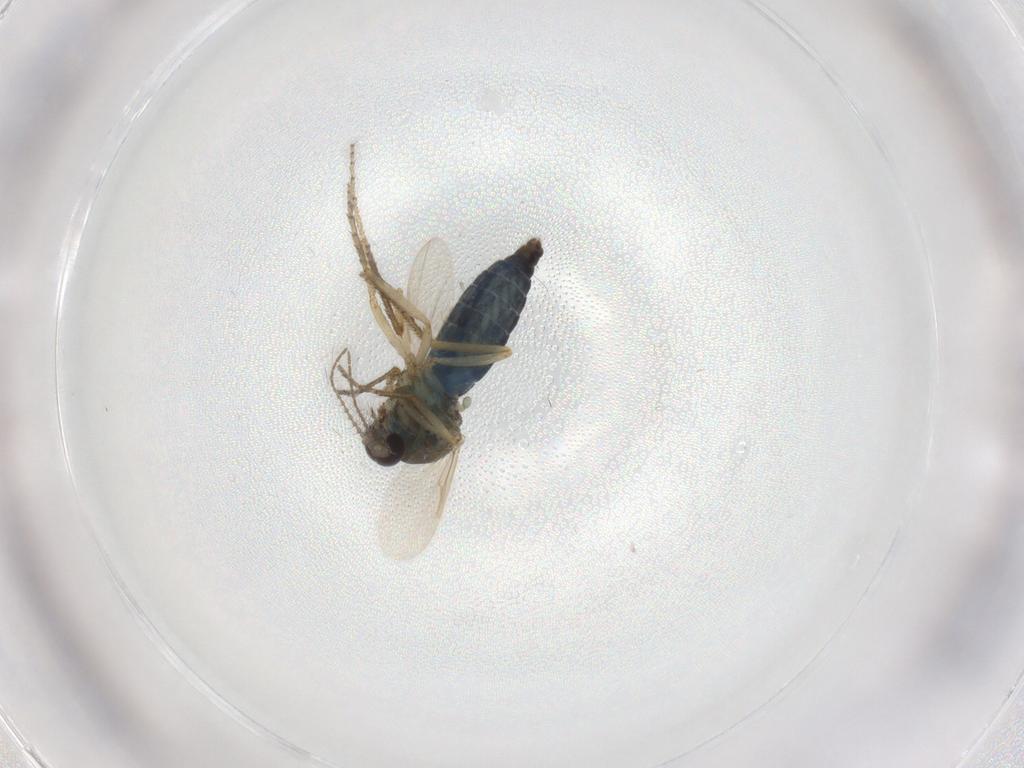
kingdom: Animalia
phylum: Arthropoda
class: Insecta
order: Diptera
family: Ceratopogonidae
